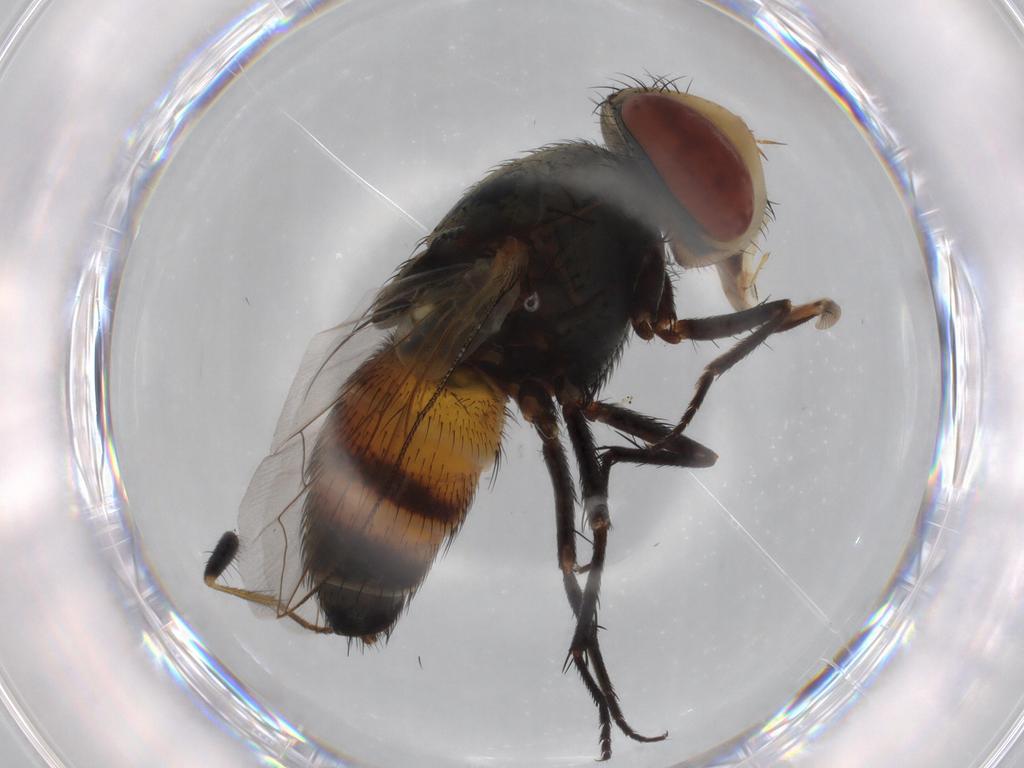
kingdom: Animalia
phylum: Arthropoda
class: Insecta
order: Diptera
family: Sarcophagidae
